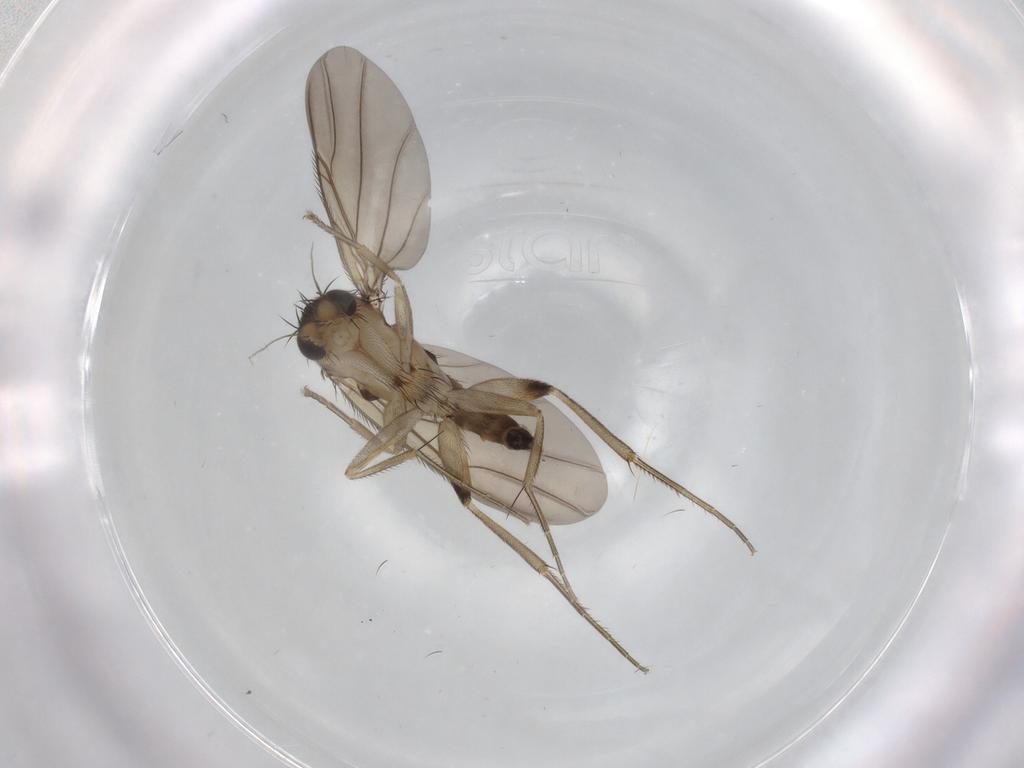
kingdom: Animalia
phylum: Arthropoda
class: Insecta
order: Diptera
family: Phoridae
